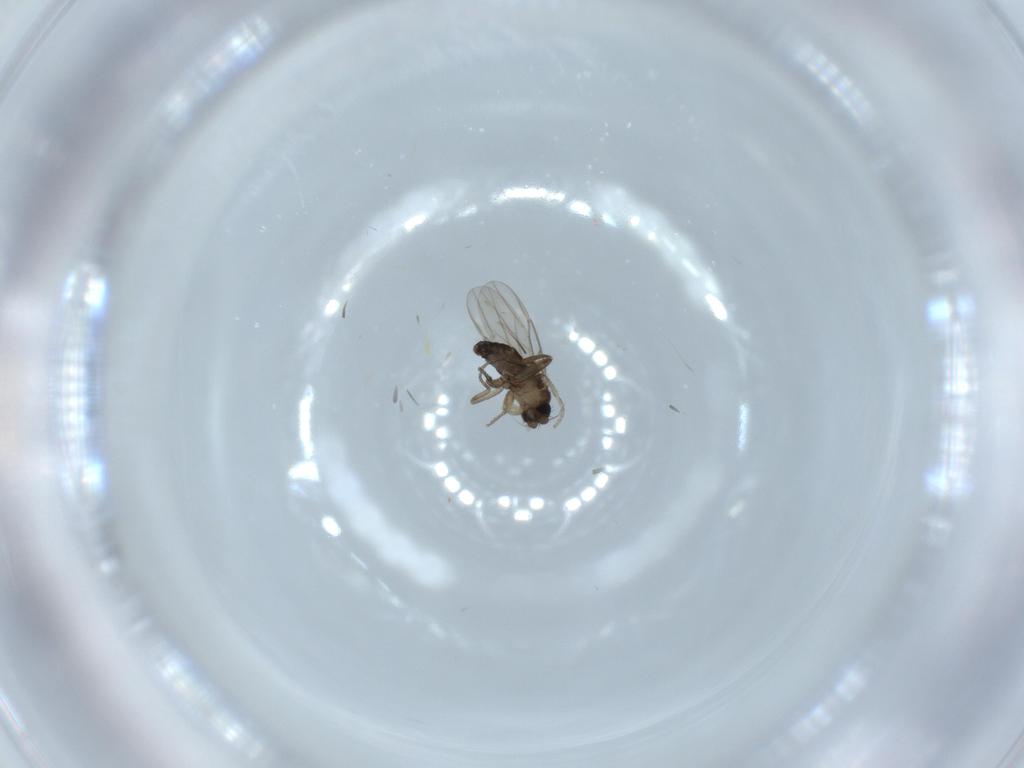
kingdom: Animalia
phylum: Arthropoda
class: Insecta
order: Diptera
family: Phoridae
